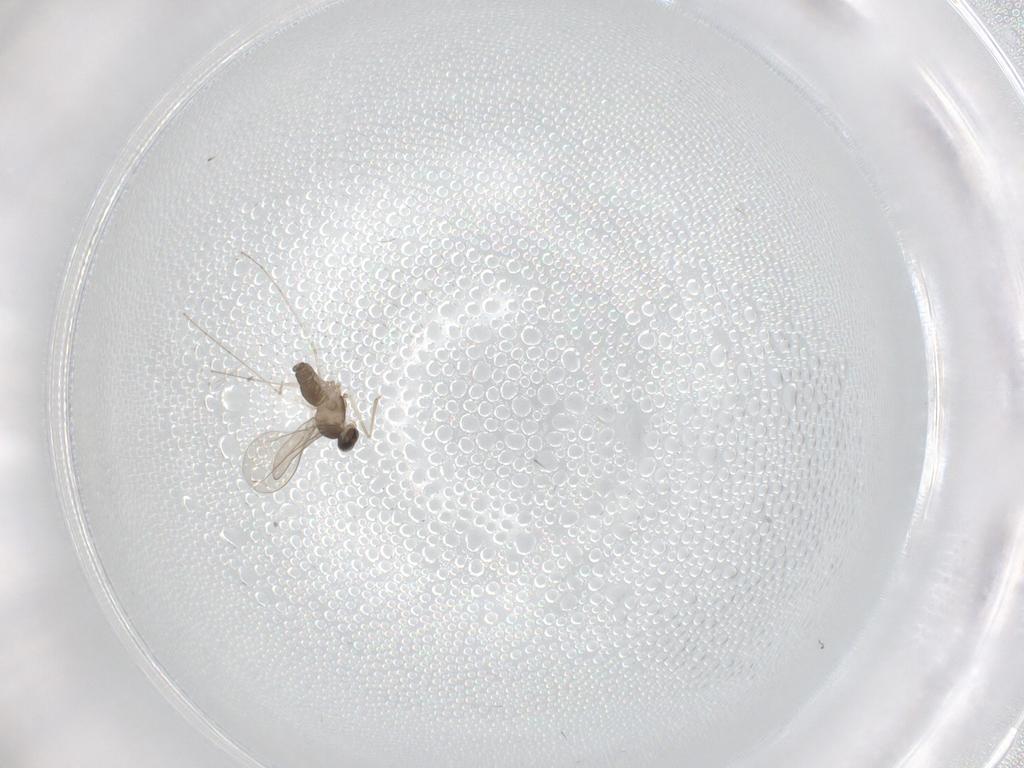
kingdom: Animalia
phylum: Arthropoda
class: Insecta
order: Diptera
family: Cecidomyiidae
